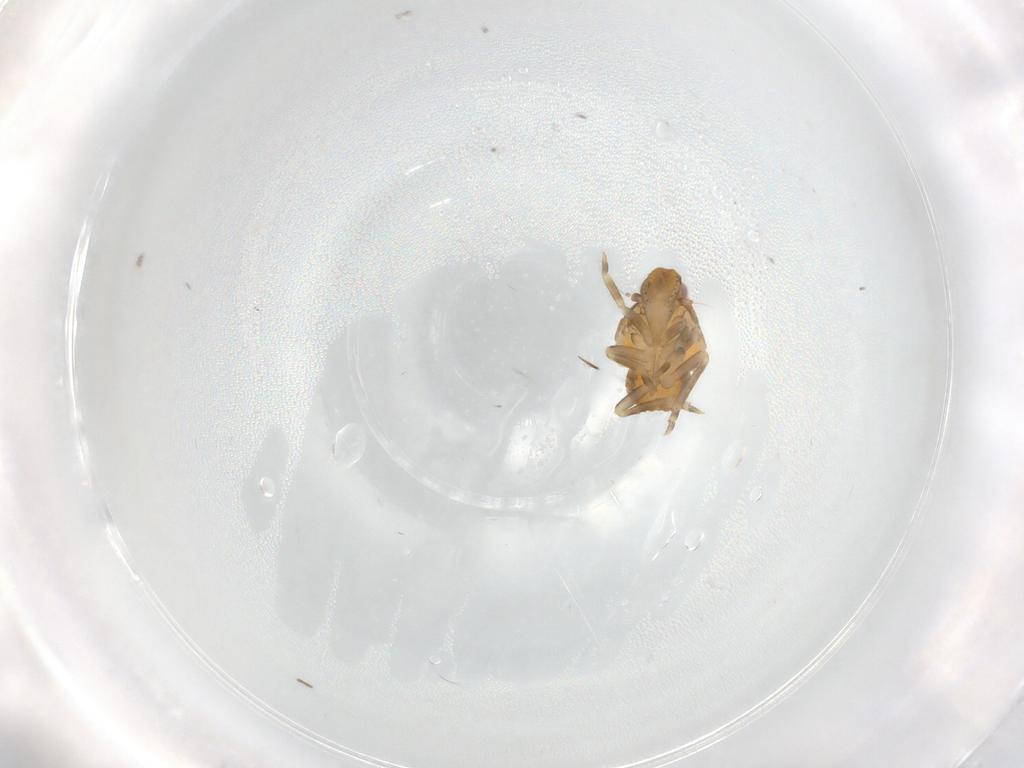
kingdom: Animalia
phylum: Arthropoda
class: Insecta
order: Hemiptera
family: Flatidae
